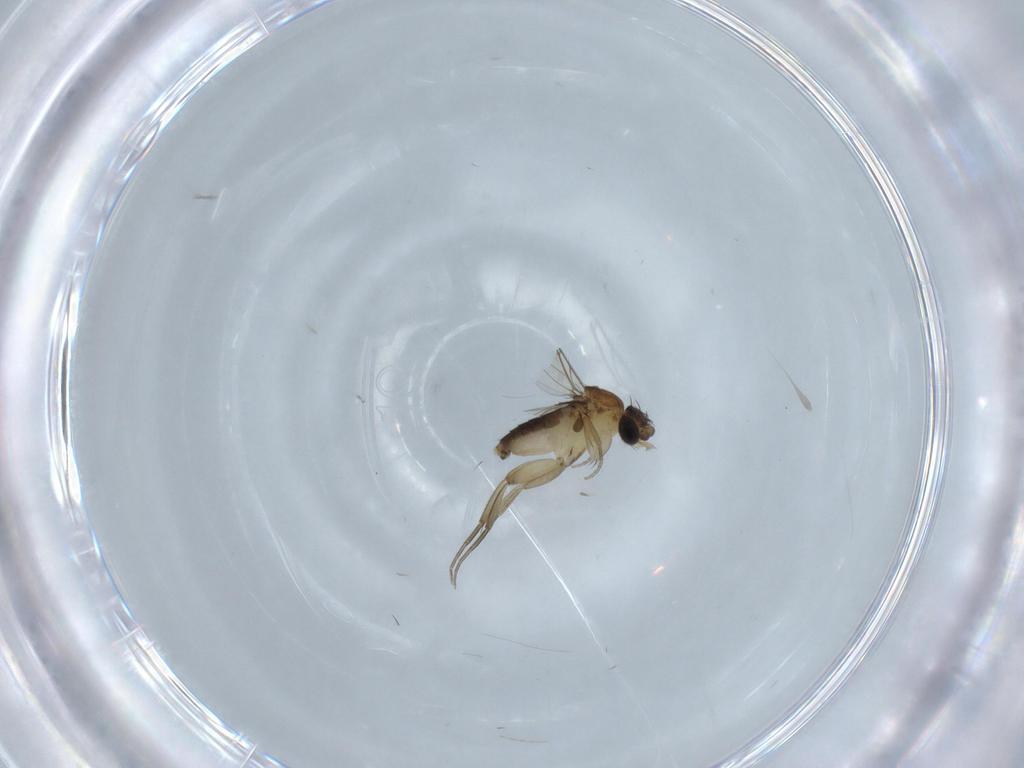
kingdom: Animalia
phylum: Arthropoda
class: Insecta
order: Diptera
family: Phoridae
